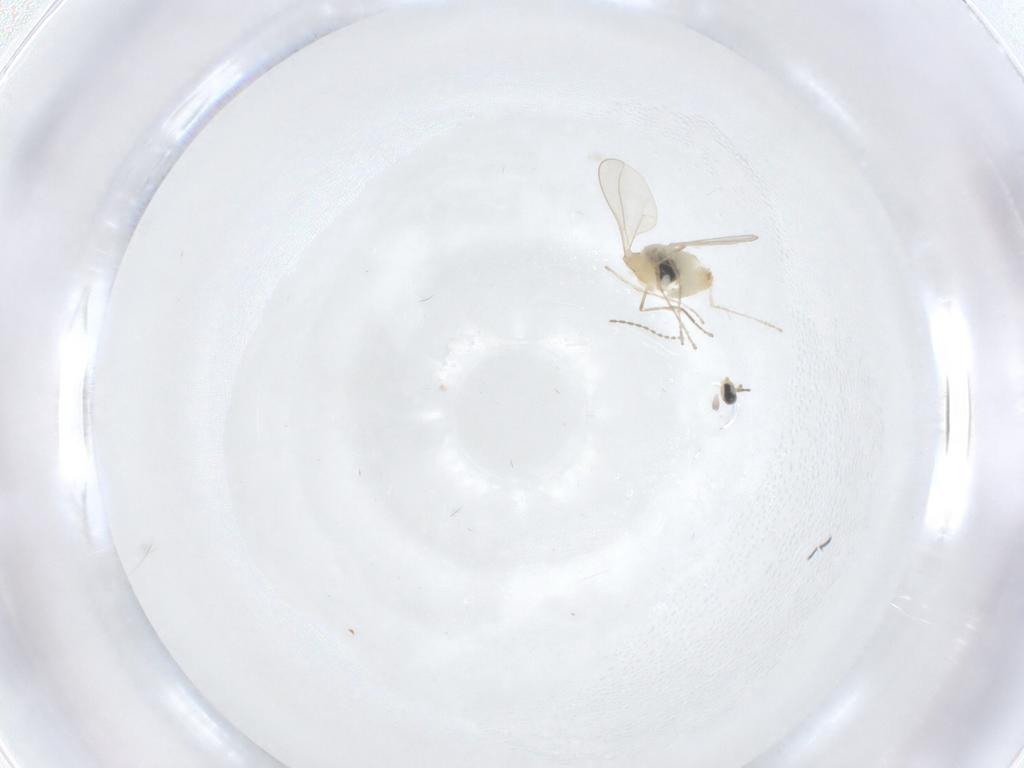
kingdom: Animalia
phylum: Arthropoda
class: Insecta
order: Diptera
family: Cecidomyiidae
